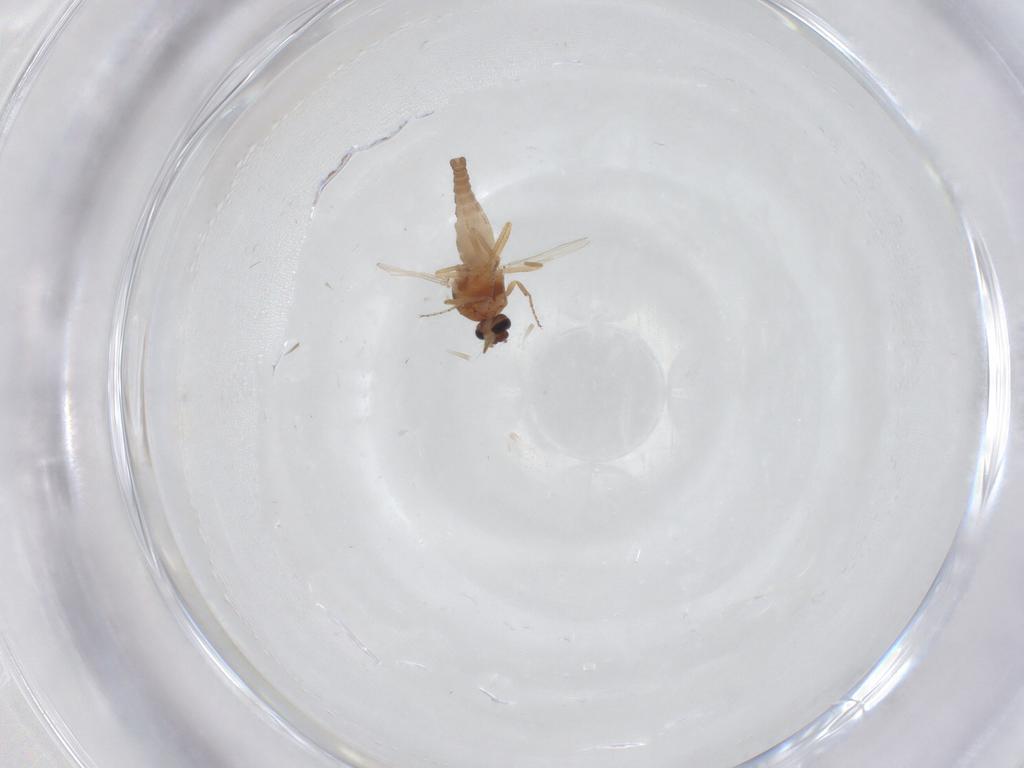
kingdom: Animalia
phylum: Arthropoda
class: Insecta
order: Diptera
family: Ceratopogonidae
